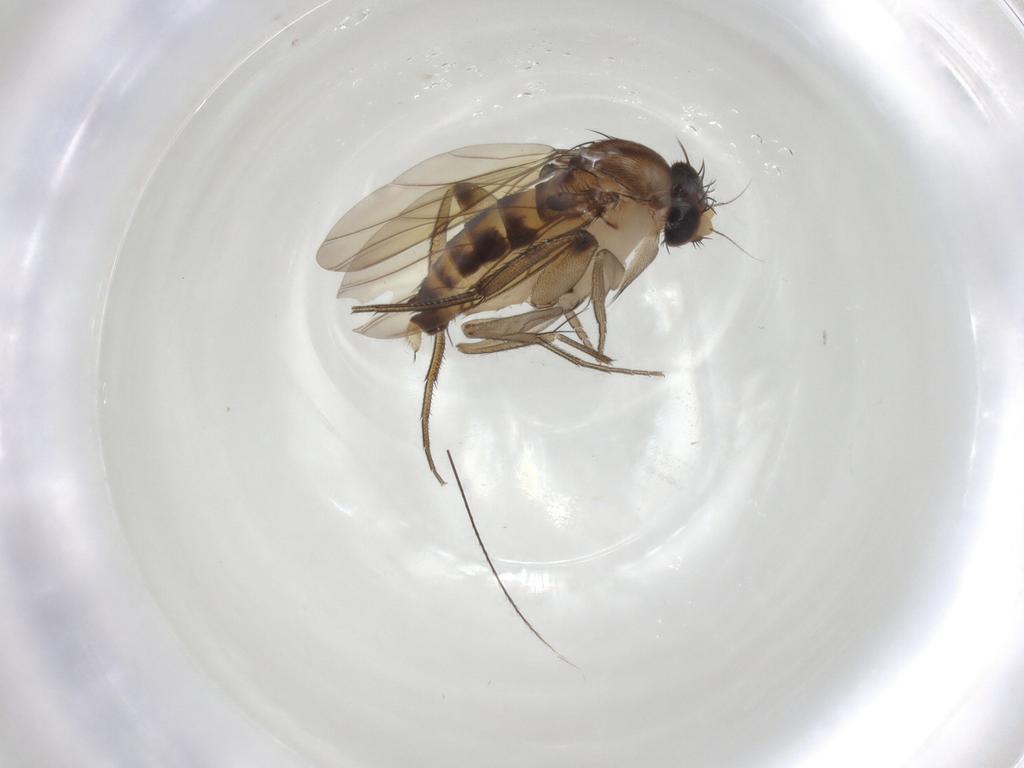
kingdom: Animalia
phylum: Arthropoda
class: Insecta
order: Diptera
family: Phoridae
